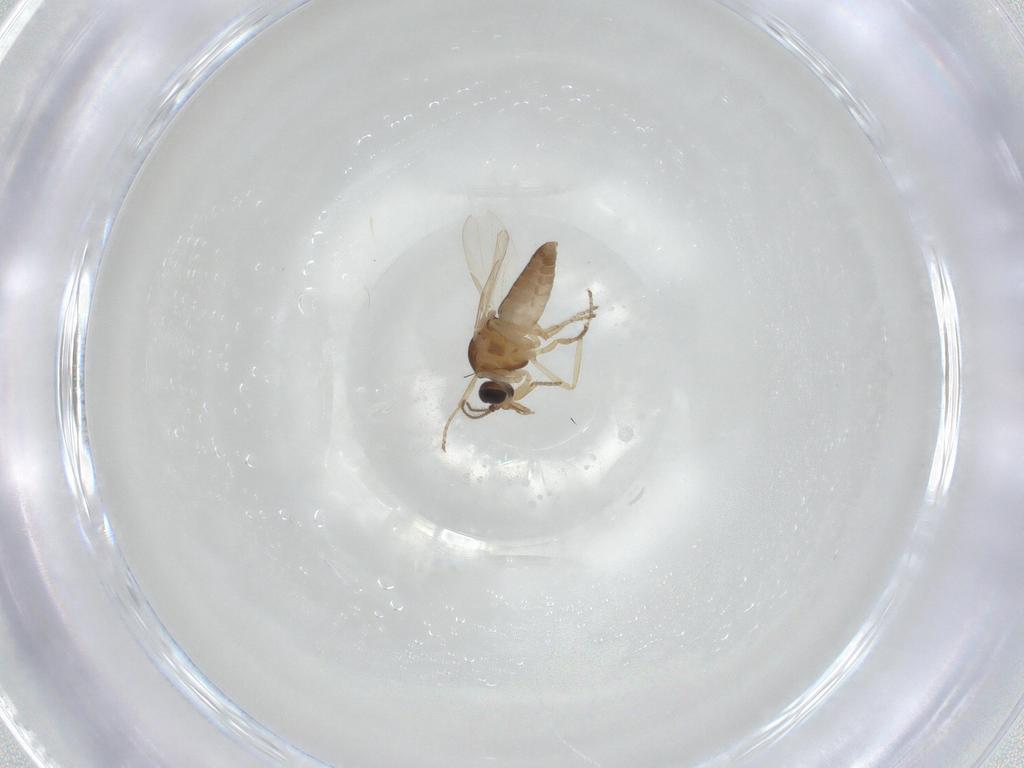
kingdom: Animalia
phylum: Arthropoda
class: Insecta
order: Diptera
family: Ceratopogonidae
